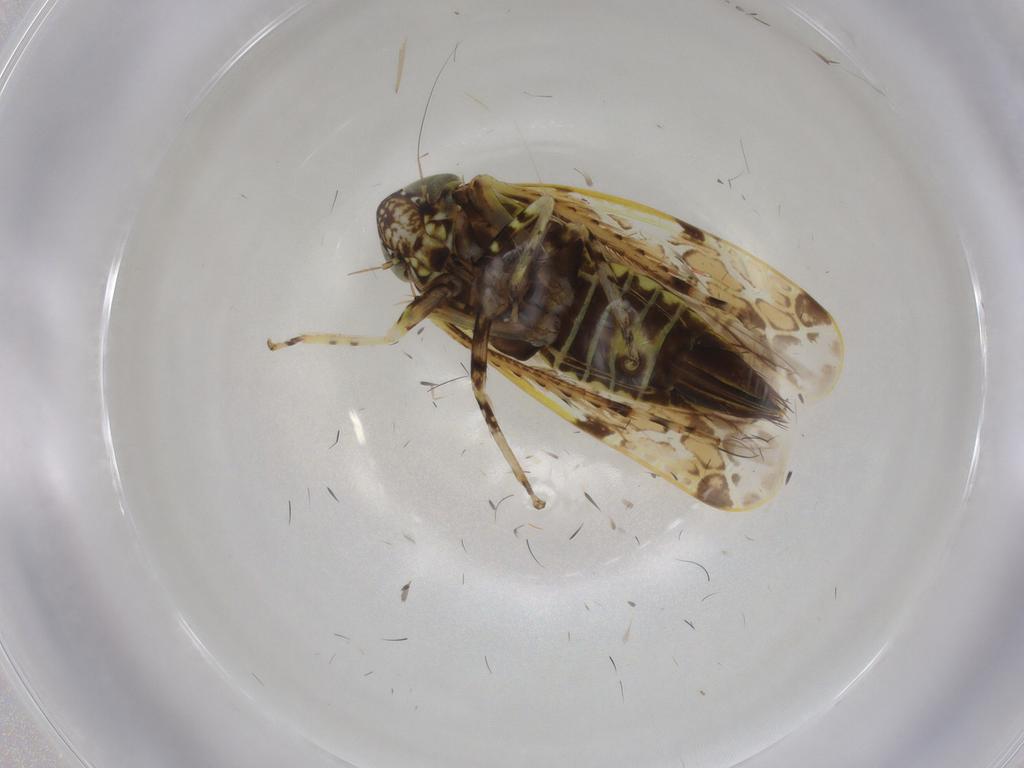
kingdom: Animalia
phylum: Arthropoda
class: Insecta
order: Hemiptera
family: Cicadellidae
